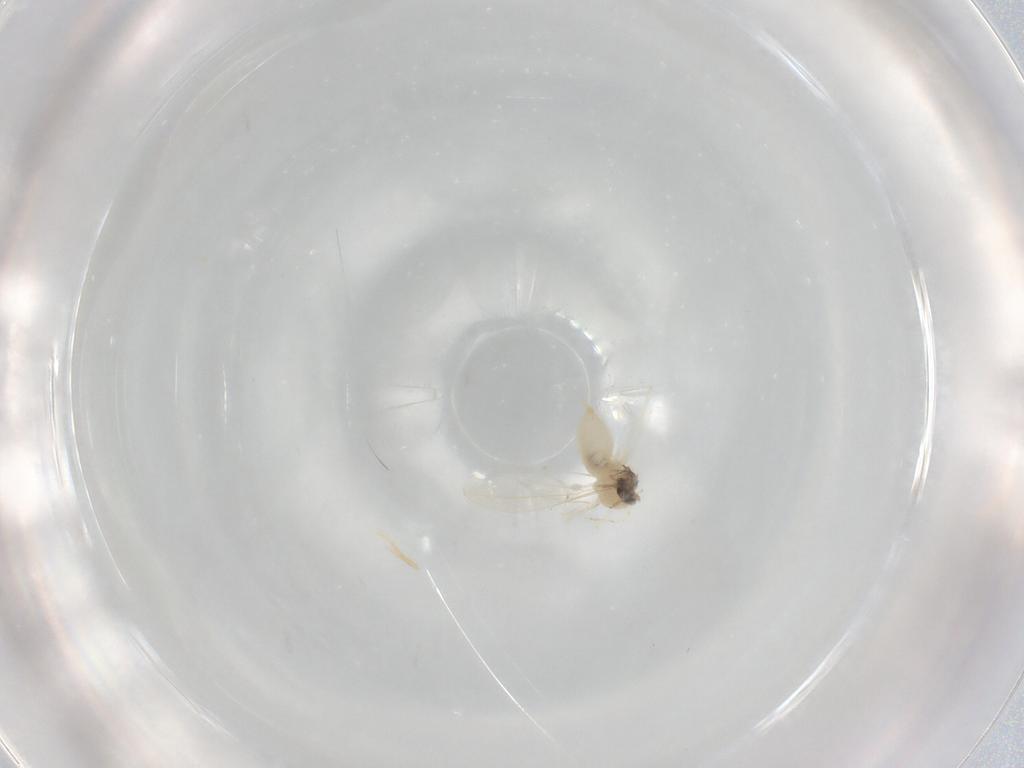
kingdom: Animalia
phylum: Arthropoda
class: Insecta
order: Diptera
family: Cecidomyiidae
